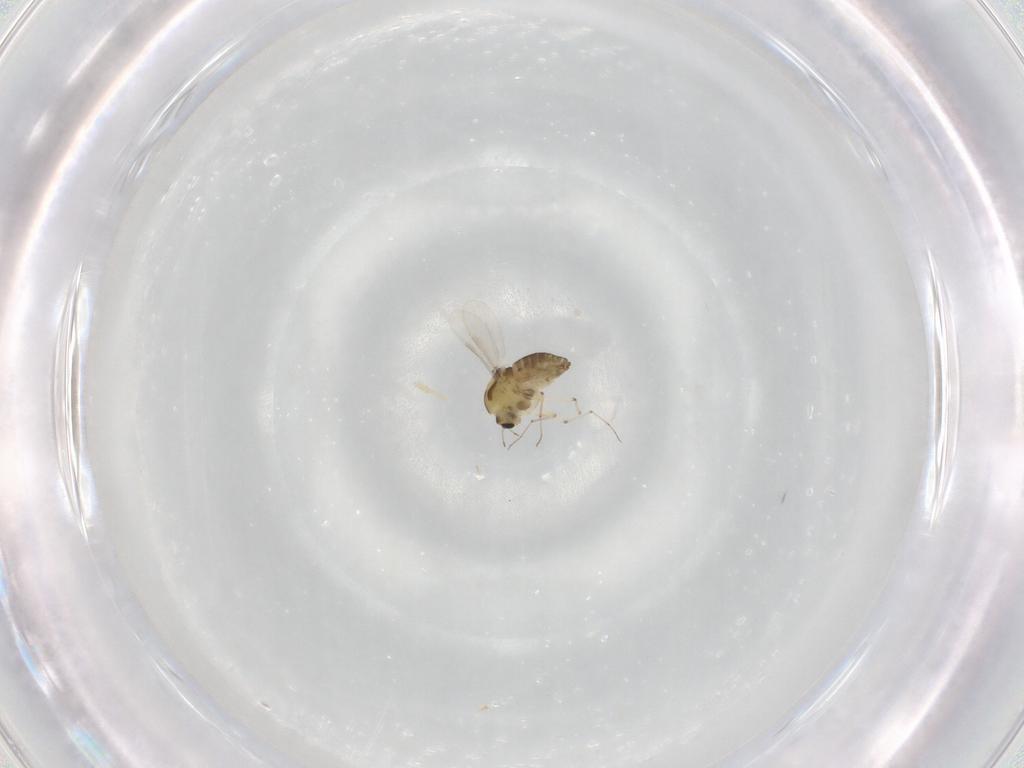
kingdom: Animalia
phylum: Arthropoda
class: Insecta
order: Diptera
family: Chironomidae
